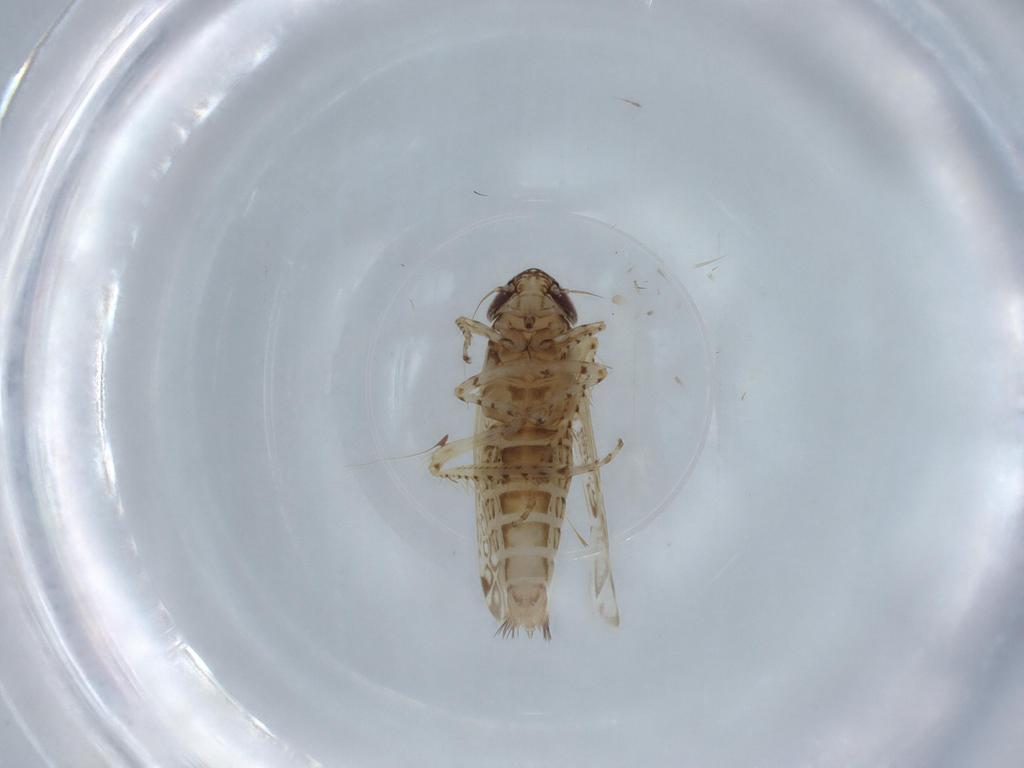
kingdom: Animalia
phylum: Arthropoda
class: Insecta
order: Hemiptera
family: Cicadellidae
